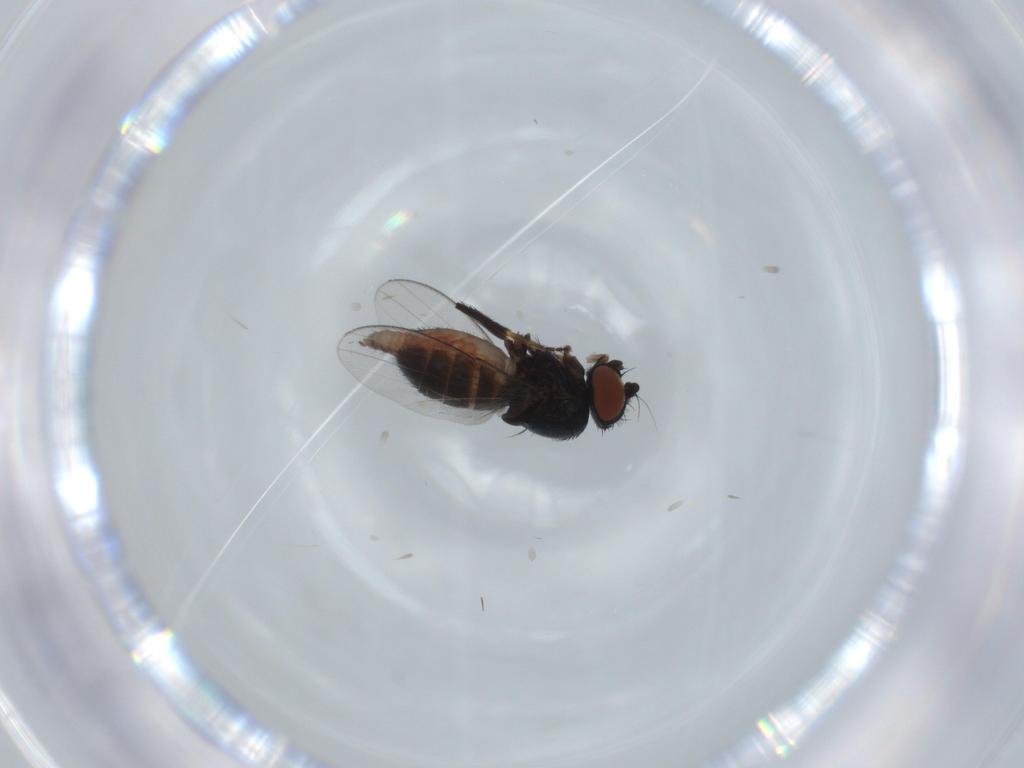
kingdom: Animalia
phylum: Arthropoda
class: Insecta
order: Diptera
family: Milichiidae
